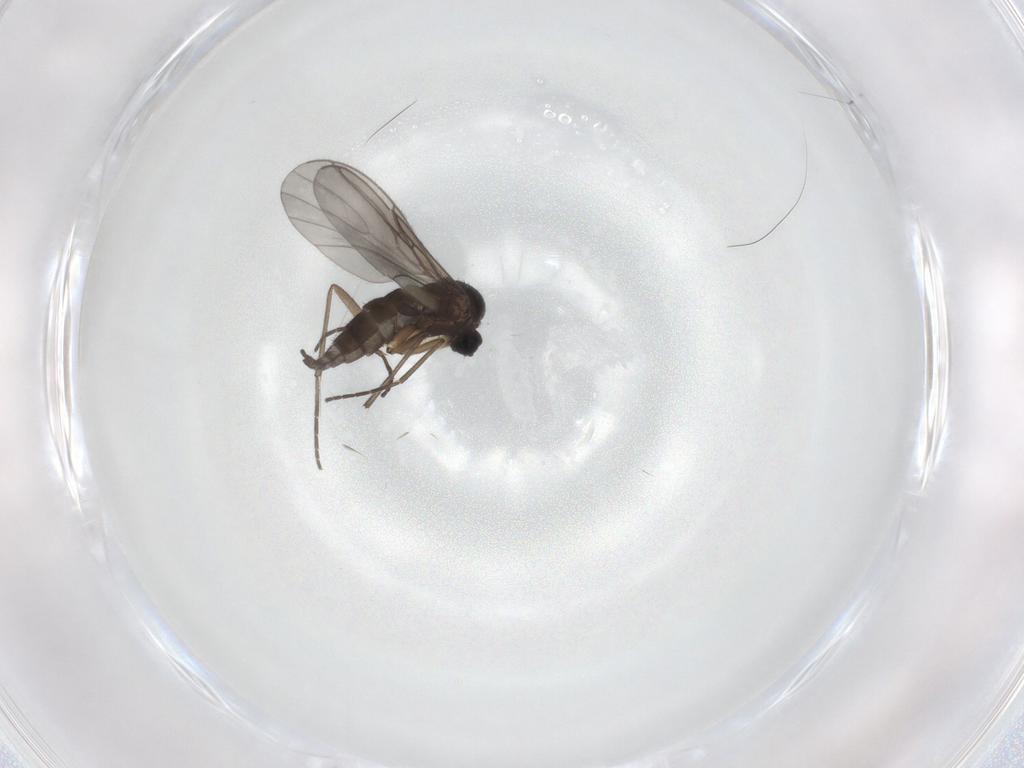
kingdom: Animalia
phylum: Arthropoda
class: Insecta
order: Diptera
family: Sciaridae
